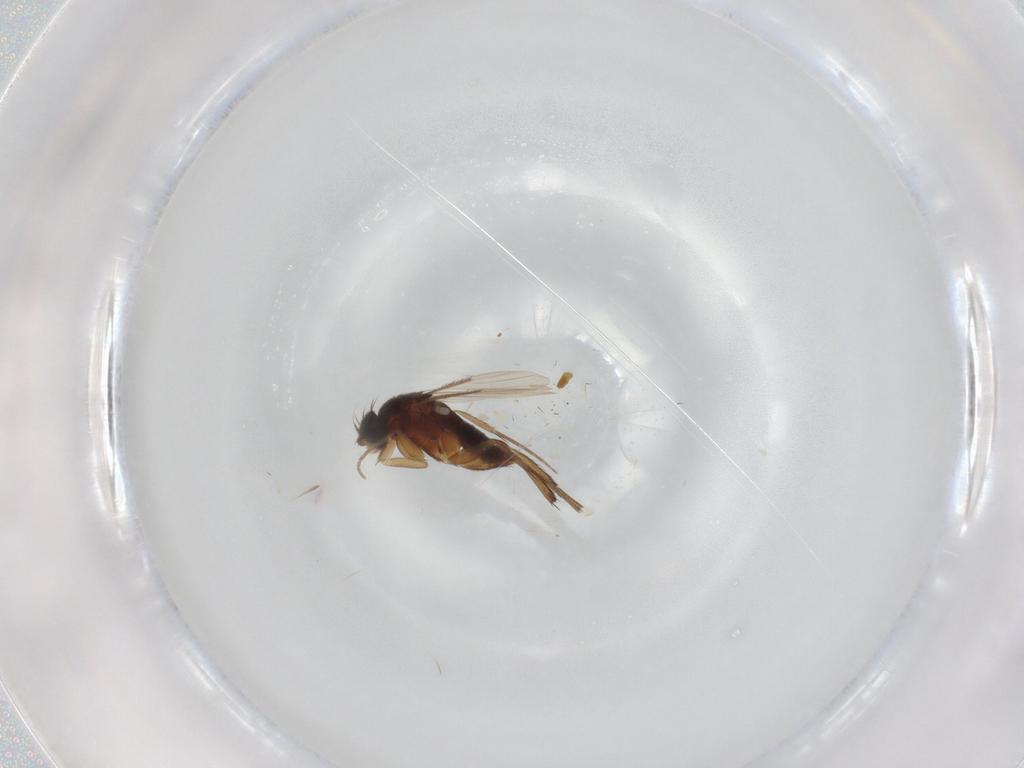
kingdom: Animalia
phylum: Arthropoda
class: Insecta
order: Diptera
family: Phoridae
